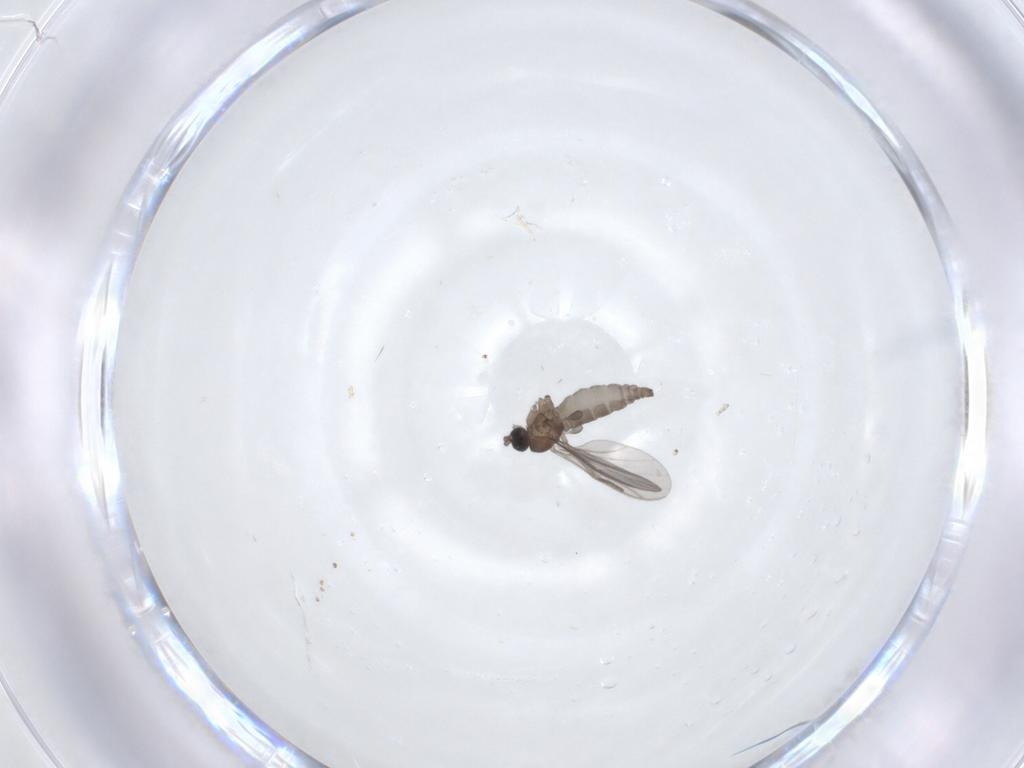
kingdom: Animalia
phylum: Arthropoda
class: Insecta
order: Diptera
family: Sciaridae
